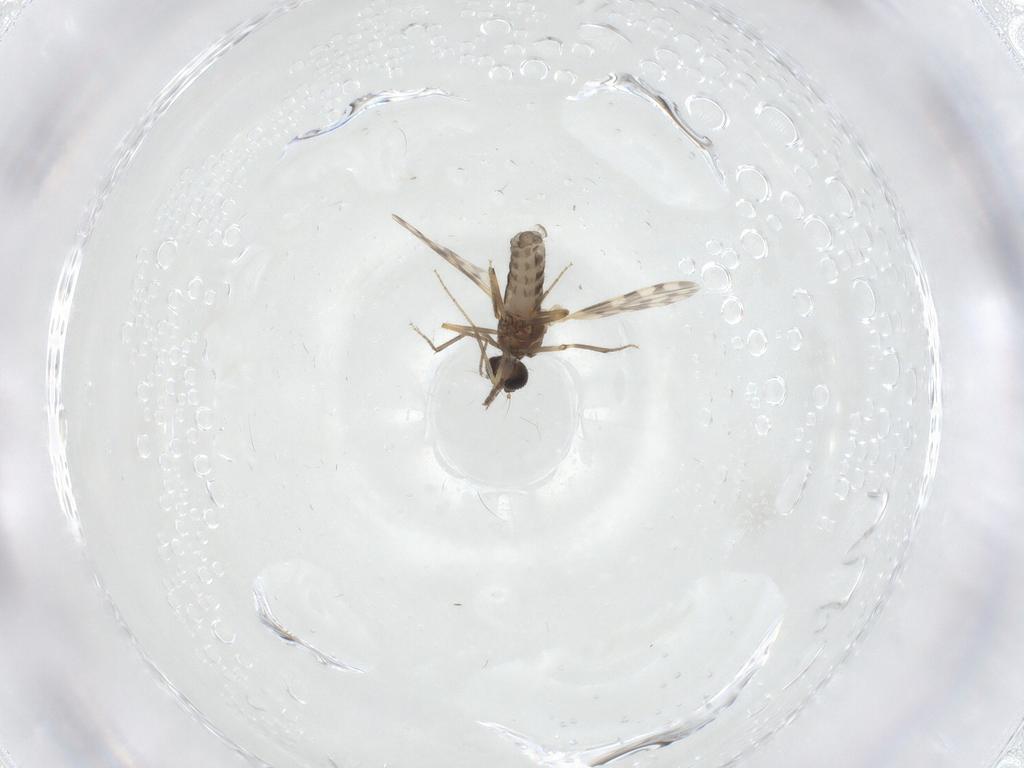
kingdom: Animalia
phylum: Arthropoda
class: Insecta
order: Diptera
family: Ceratopogonidae
